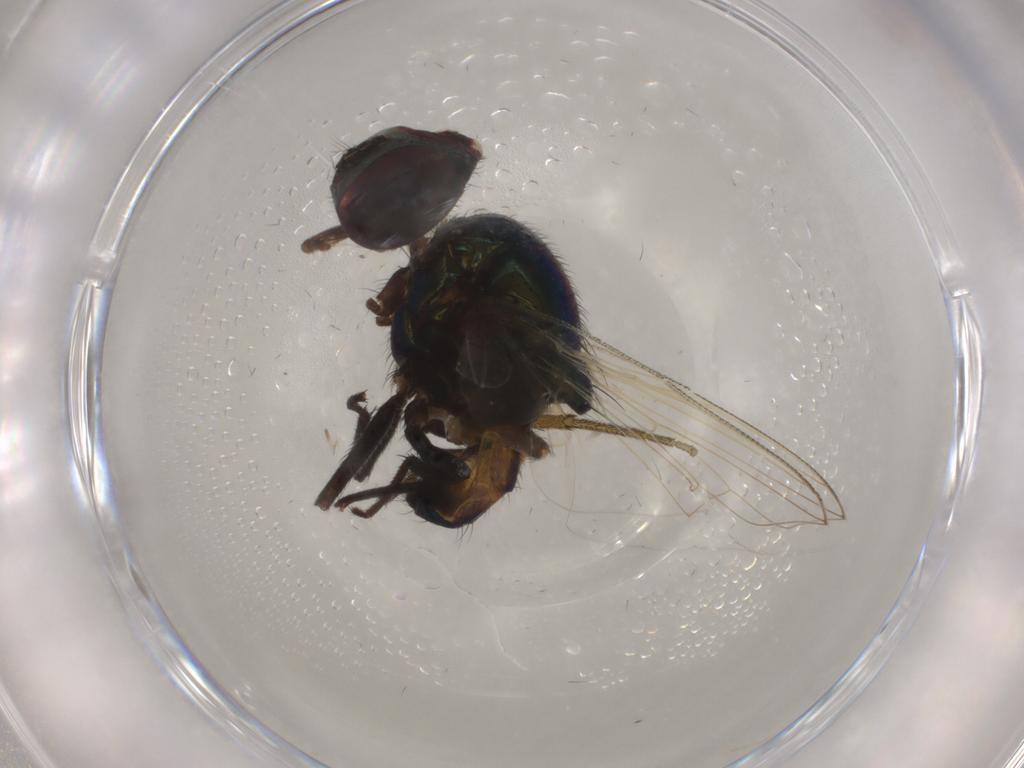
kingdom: Animalia
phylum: Arthropoda
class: Insecta
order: Diptera
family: Muscidae
